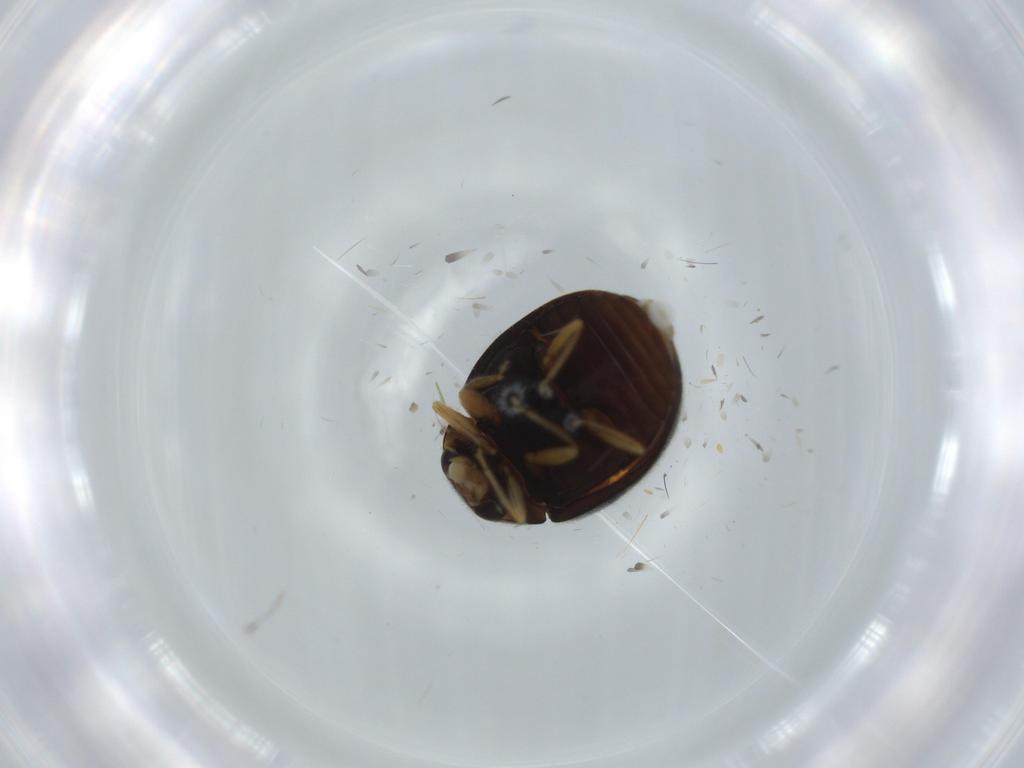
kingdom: Animalia
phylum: Arthropoda
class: Insecta
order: Coleoptera
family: Coccinellidae
